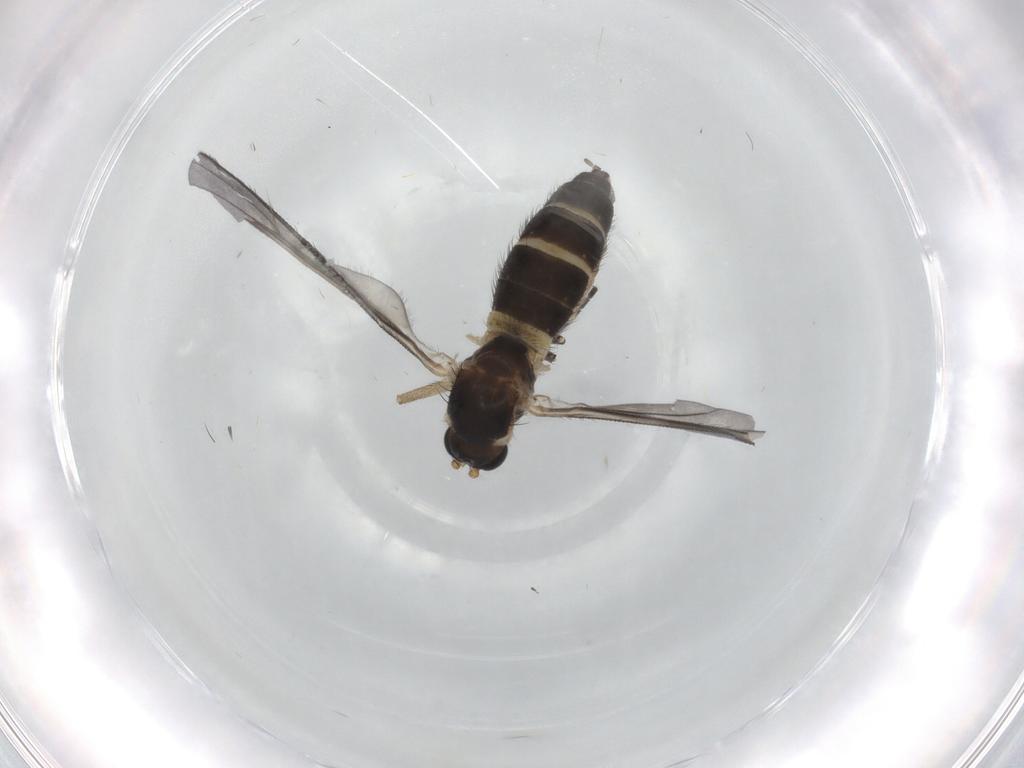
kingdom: Animalia
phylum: Arthropoda
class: Insecta
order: Diptera
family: Sciaridae
